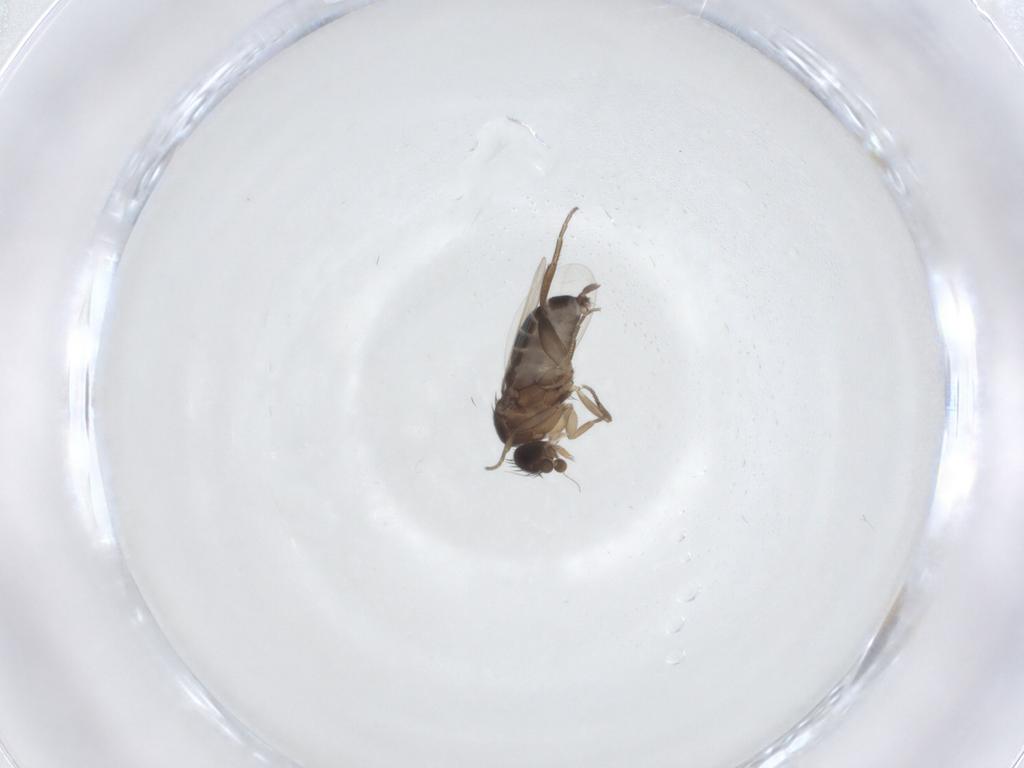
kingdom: Animalia
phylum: Arthropoda
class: Insecta
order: Diptera
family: Phoridae
